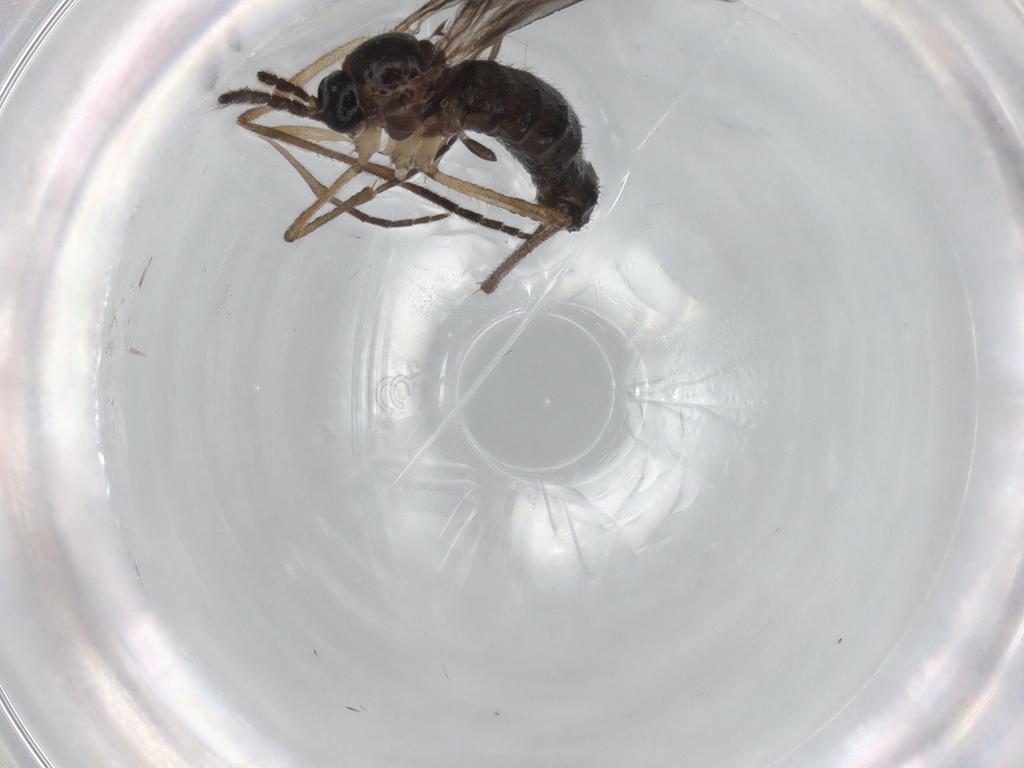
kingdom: Animalia
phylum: Arthropoda
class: Insecta
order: Diptera
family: Sciaridae
